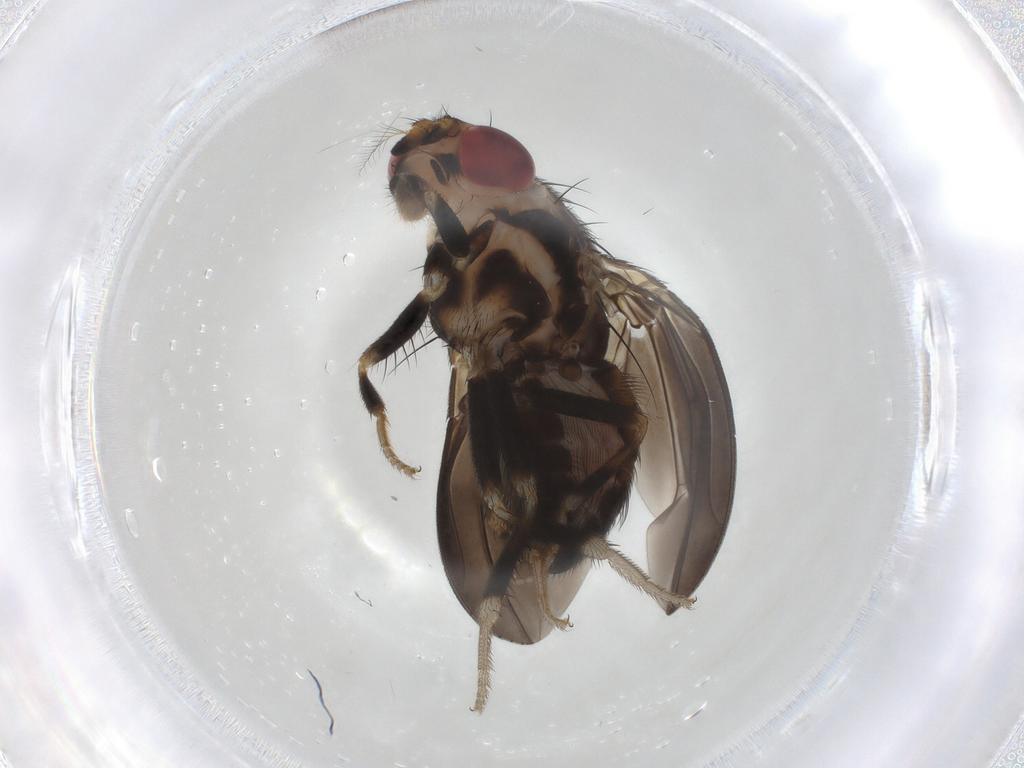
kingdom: Animalia
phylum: Arthropoda
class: Insecta
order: Diptera
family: Drosophilidae
